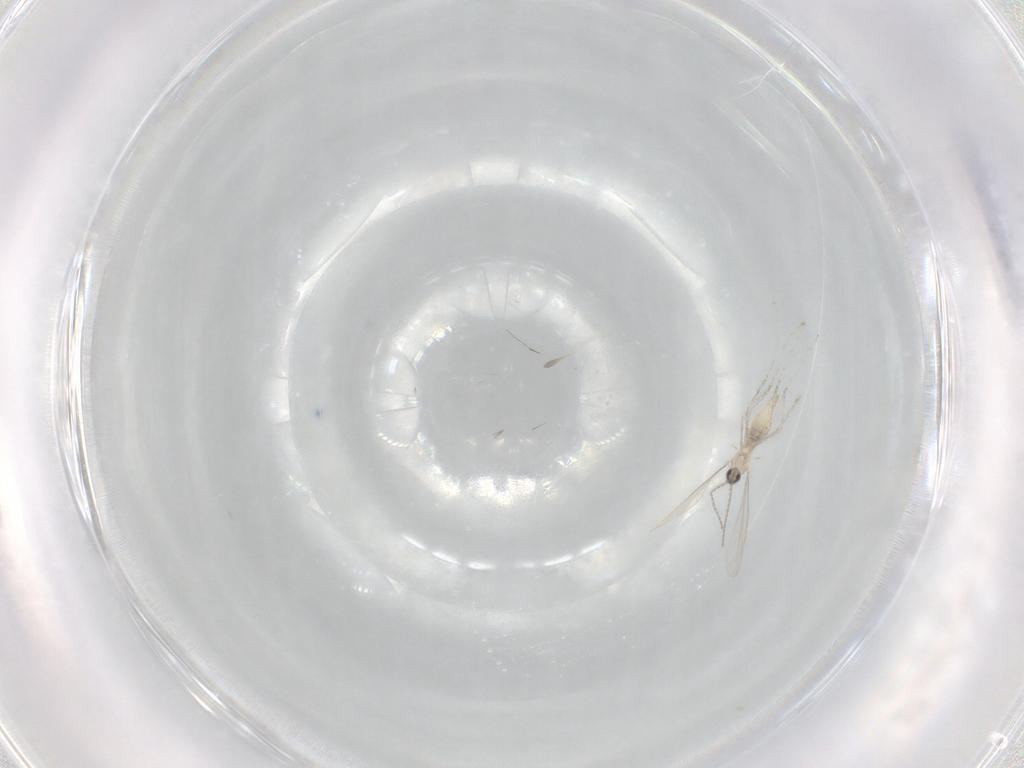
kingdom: Animalia
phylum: Arthropoda
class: Insecta
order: Diptera
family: Cecidomyiidae
